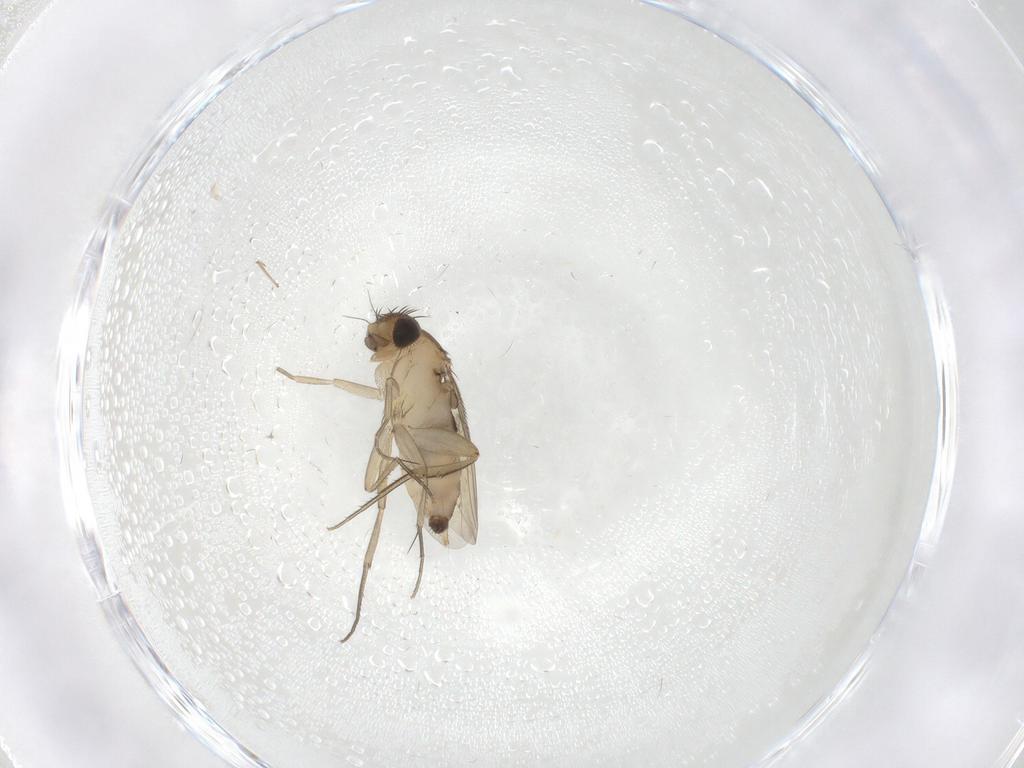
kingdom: Animalia
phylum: Arthropoda
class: Insecta
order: Diptera
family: Phoridae
